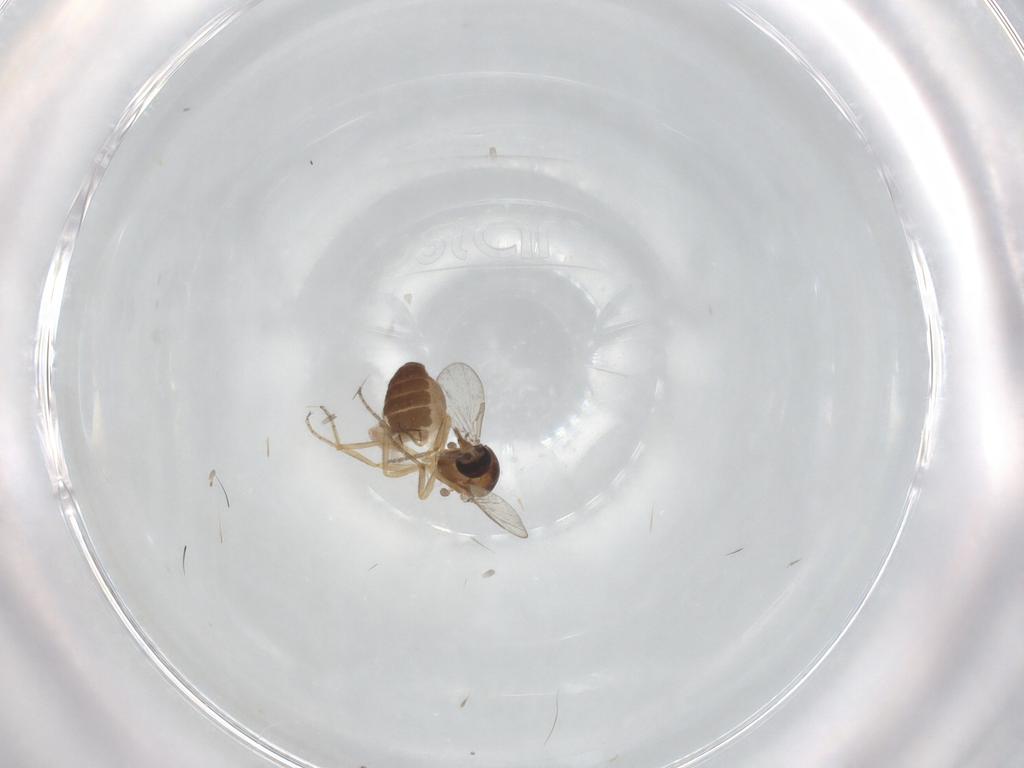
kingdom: Animalia
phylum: Arthropoda
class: Insecta
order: Diptera
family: Ceratopogonidae
